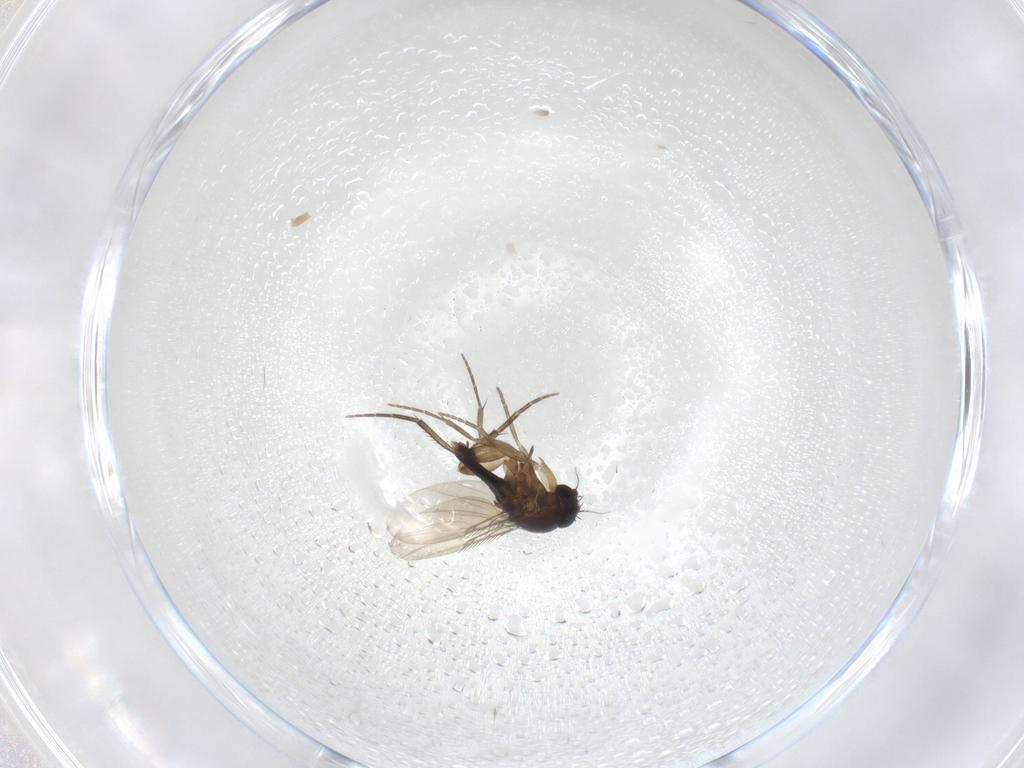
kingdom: Animalia
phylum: Arthropoda
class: Insecta
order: Diptera
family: Phoridae
